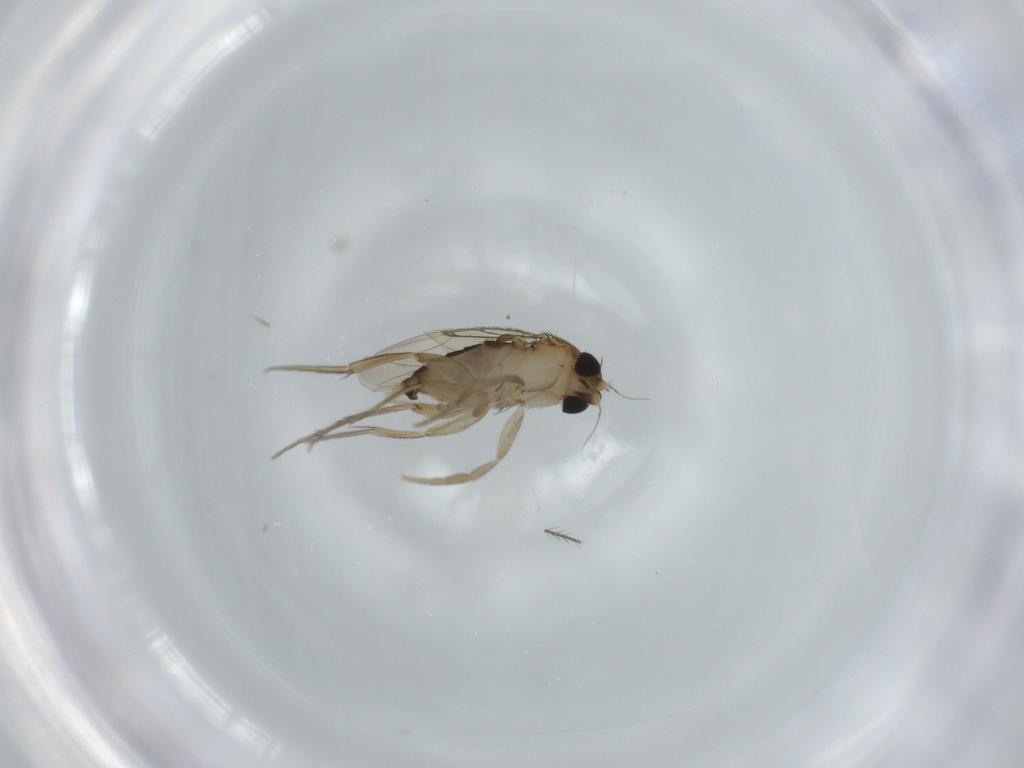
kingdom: Animalia
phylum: Arthropoda
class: Insecta
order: Diptera
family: Phoridae
